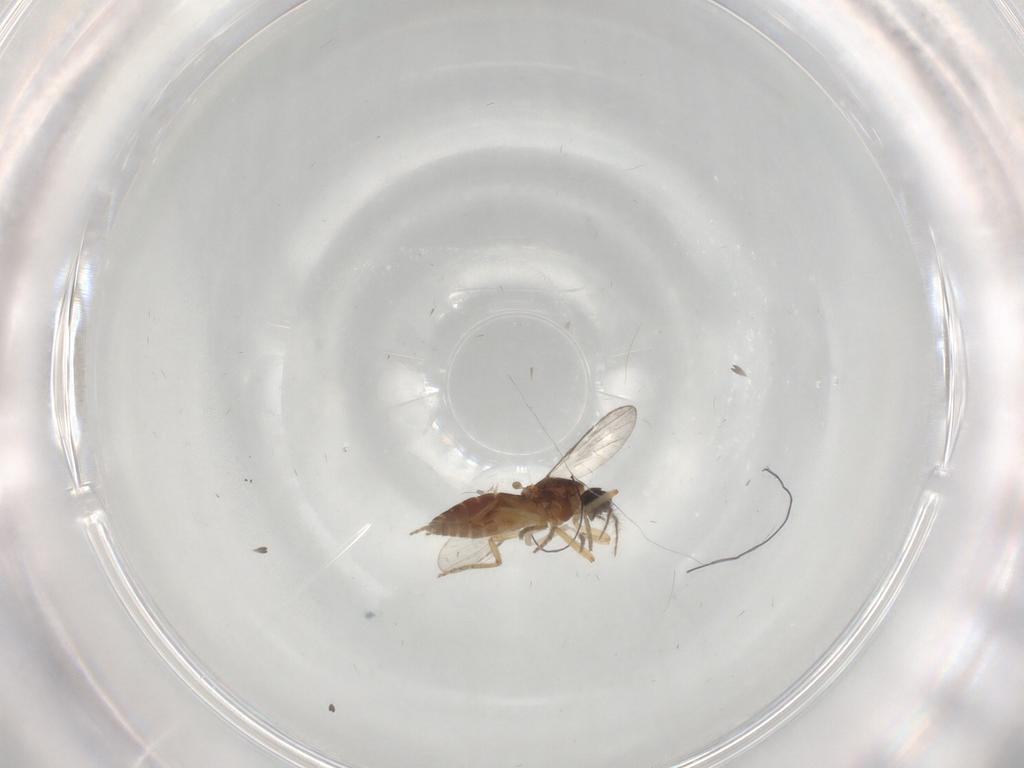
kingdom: Animalia
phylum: Arthropoda
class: Insecta
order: Diptera
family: Ceratopogonidae
